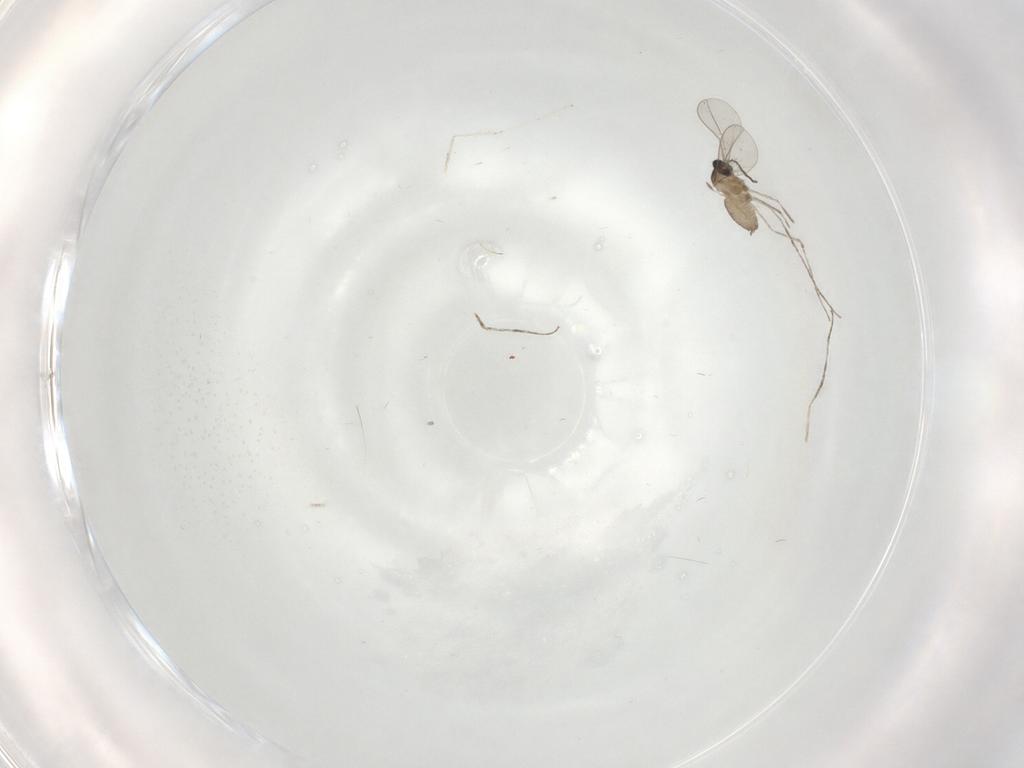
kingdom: Animalia
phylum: Arthropoda
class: Insecta
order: Diptera
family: Cecidomyiidae
